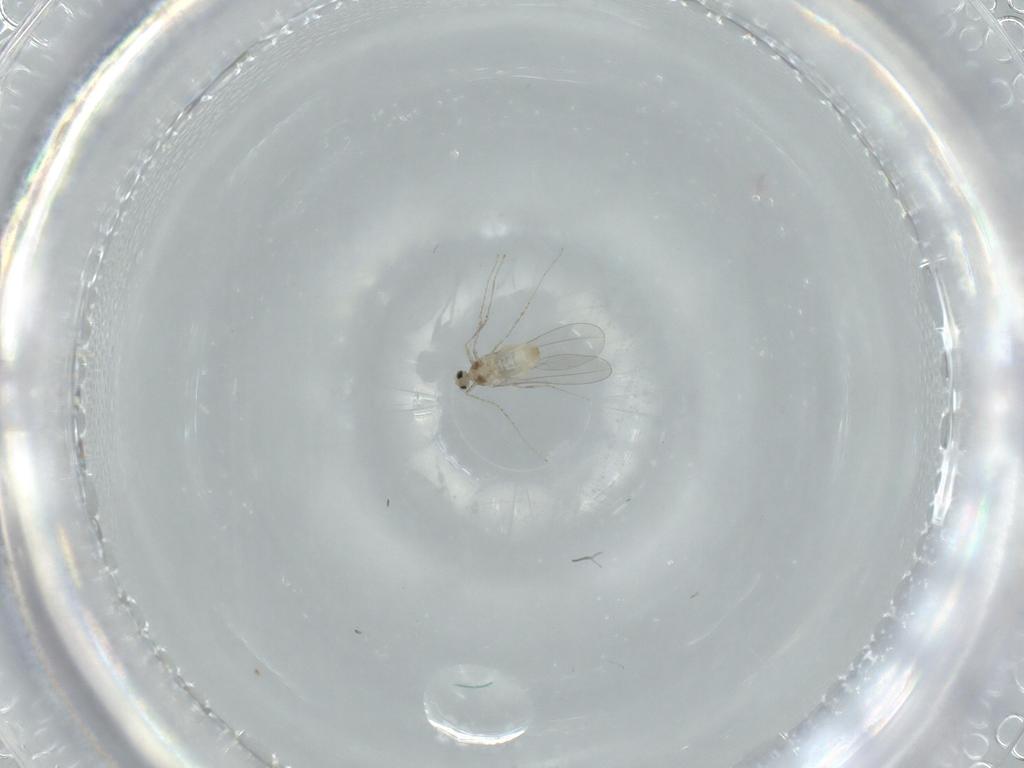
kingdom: Animalia
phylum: Arthropoda
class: Insecta
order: Diptera
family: Cecidomyiidae
